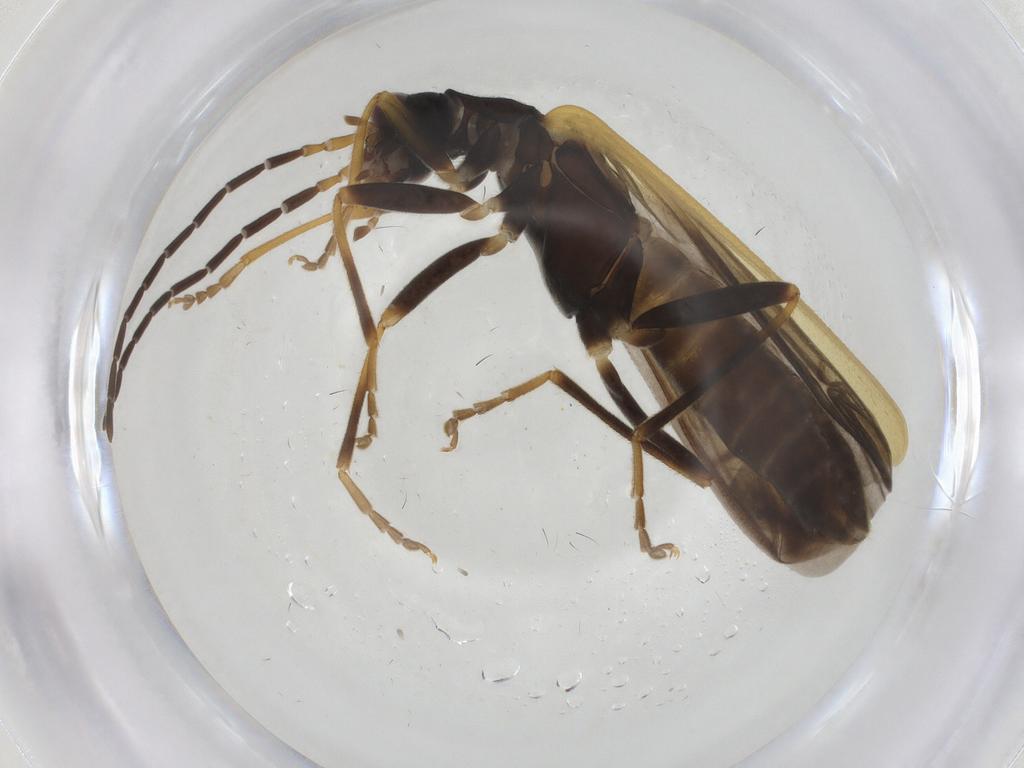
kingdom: Animalia
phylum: Arthropoda
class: Insecta
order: Coleoptera
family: Cantharidae
